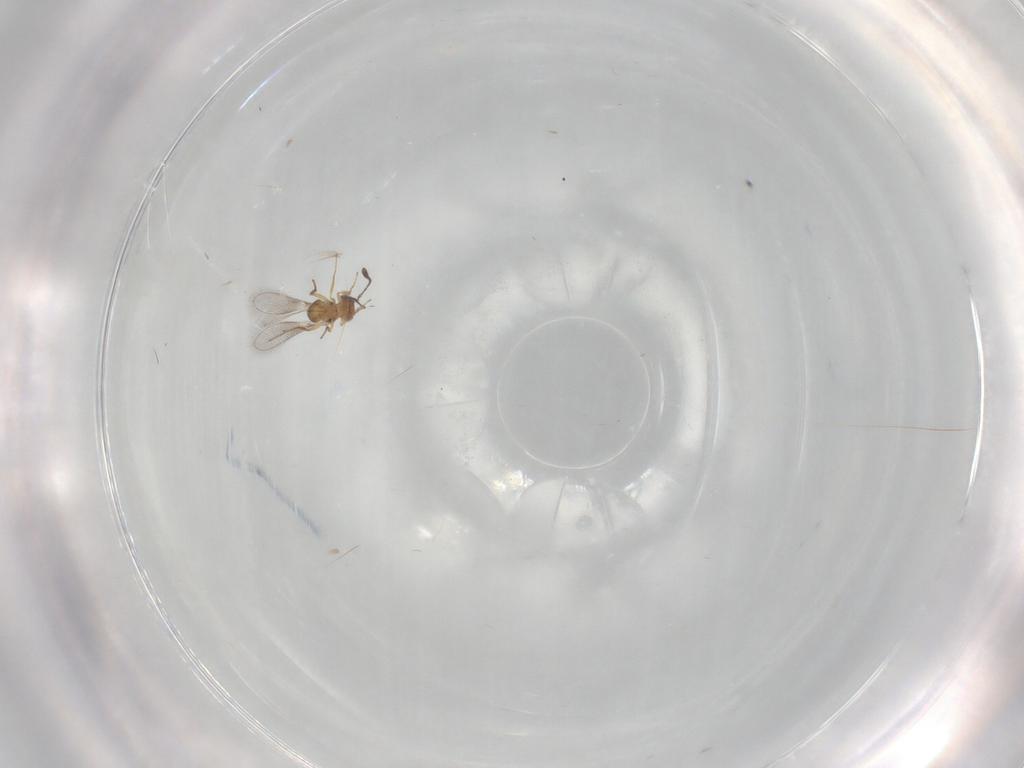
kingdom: Animalia
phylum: Arthropoda
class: Insecta
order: Hymenoptera
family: Mymaridae
